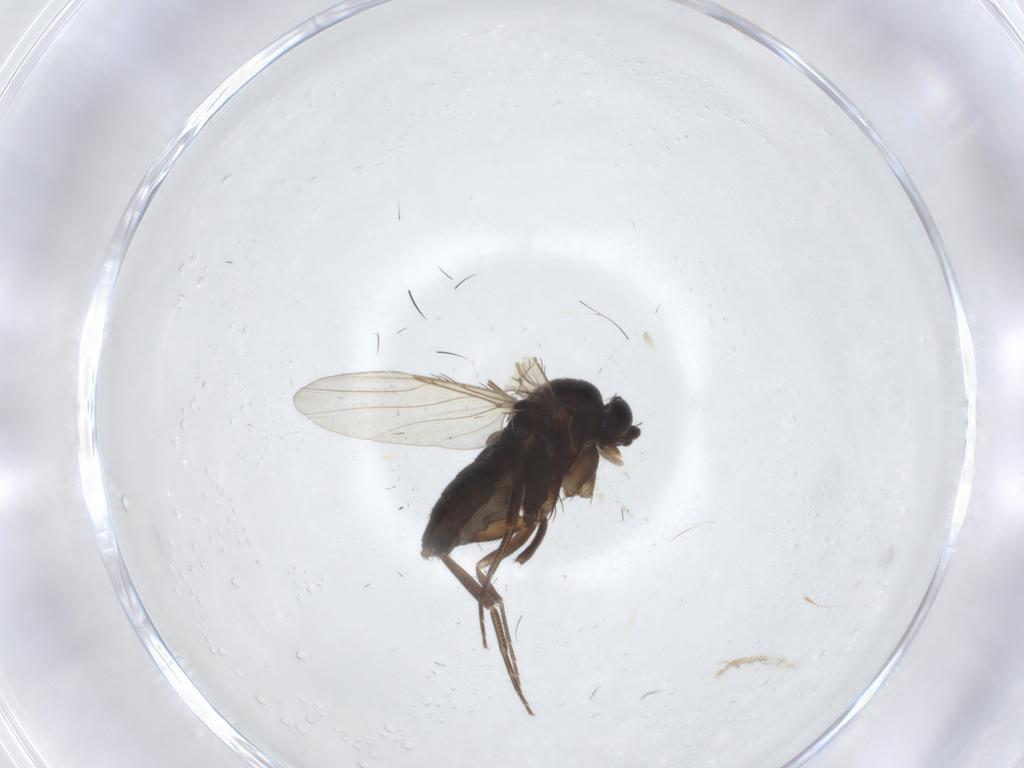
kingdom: Animalia
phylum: Arthropoda
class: Insecta
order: Diptera
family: Phoridae
